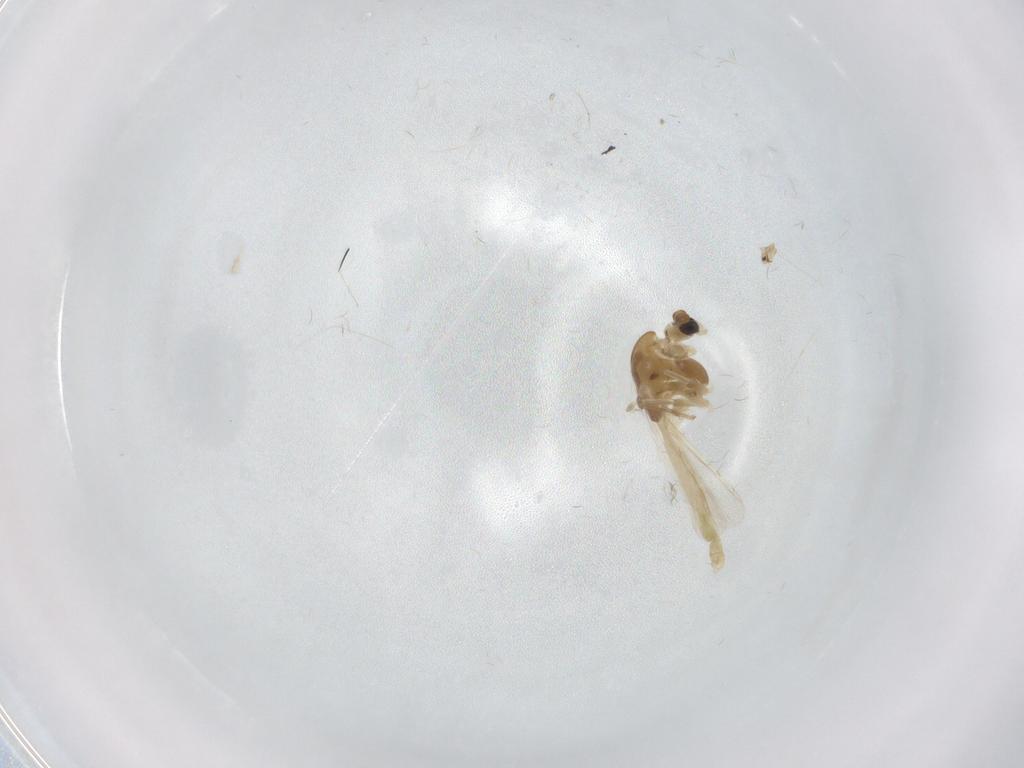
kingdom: Animalia
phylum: Arthropoda
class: Insecta
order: Diptera
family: Chironomidae
